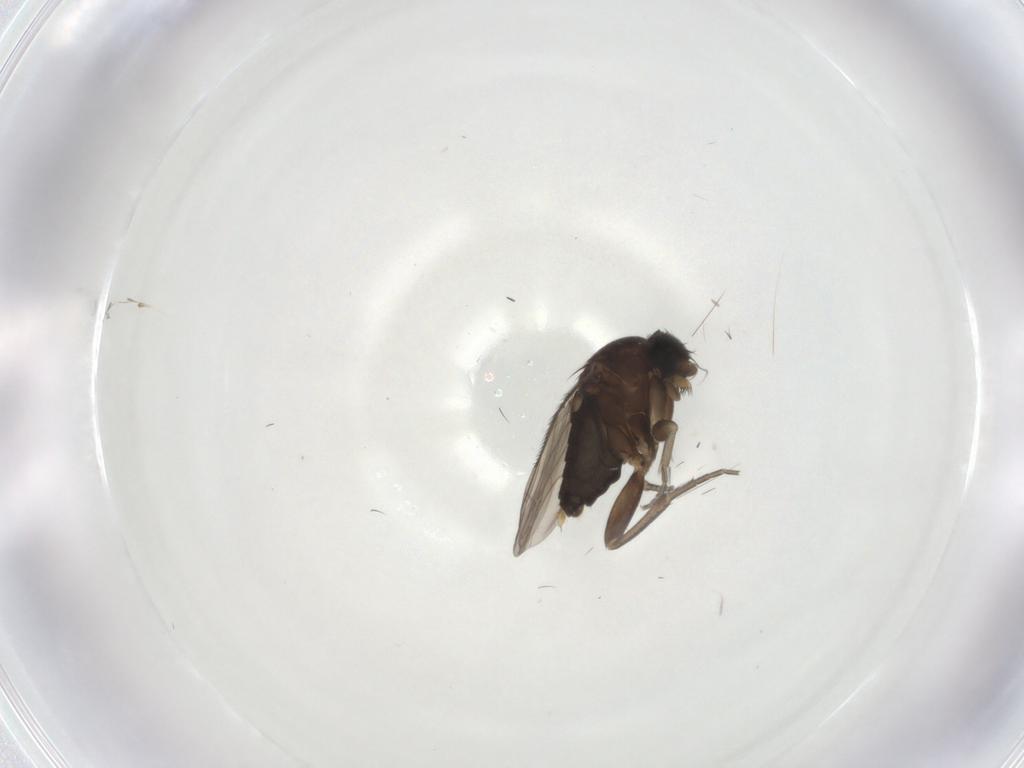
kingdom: Animalia
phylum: Arthropoda
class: Insecta
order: Diptera
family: Phoridae
